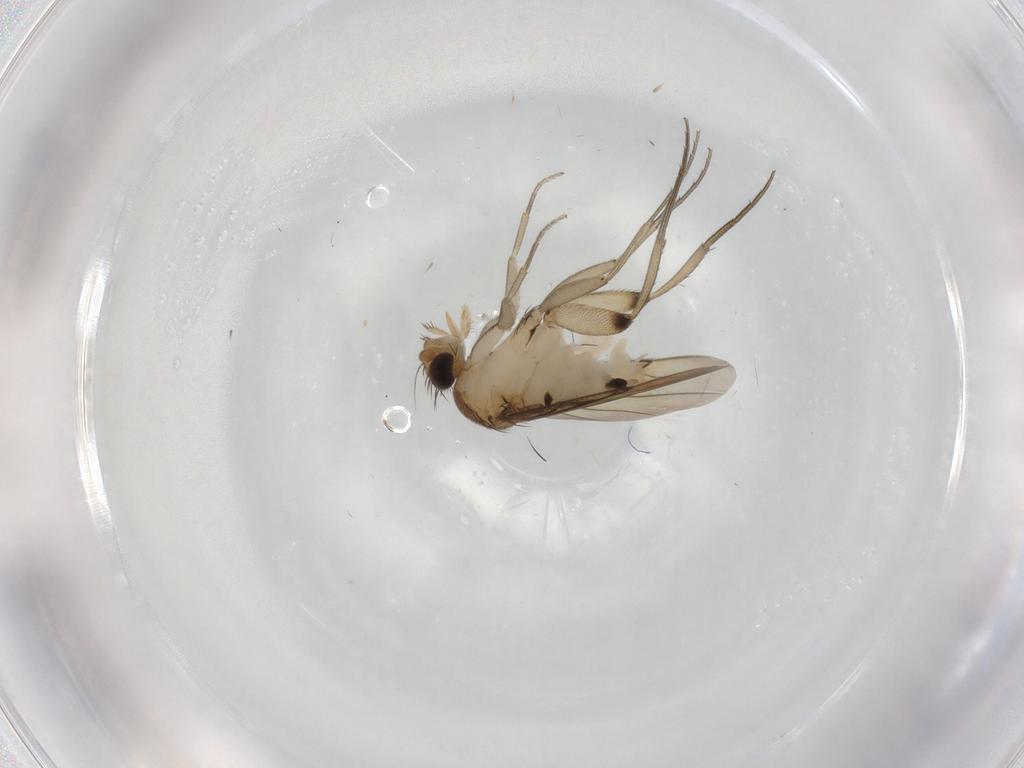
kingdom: Animalia
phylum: Arthropoda
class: Insecta
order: Diptera
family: Phoridae
